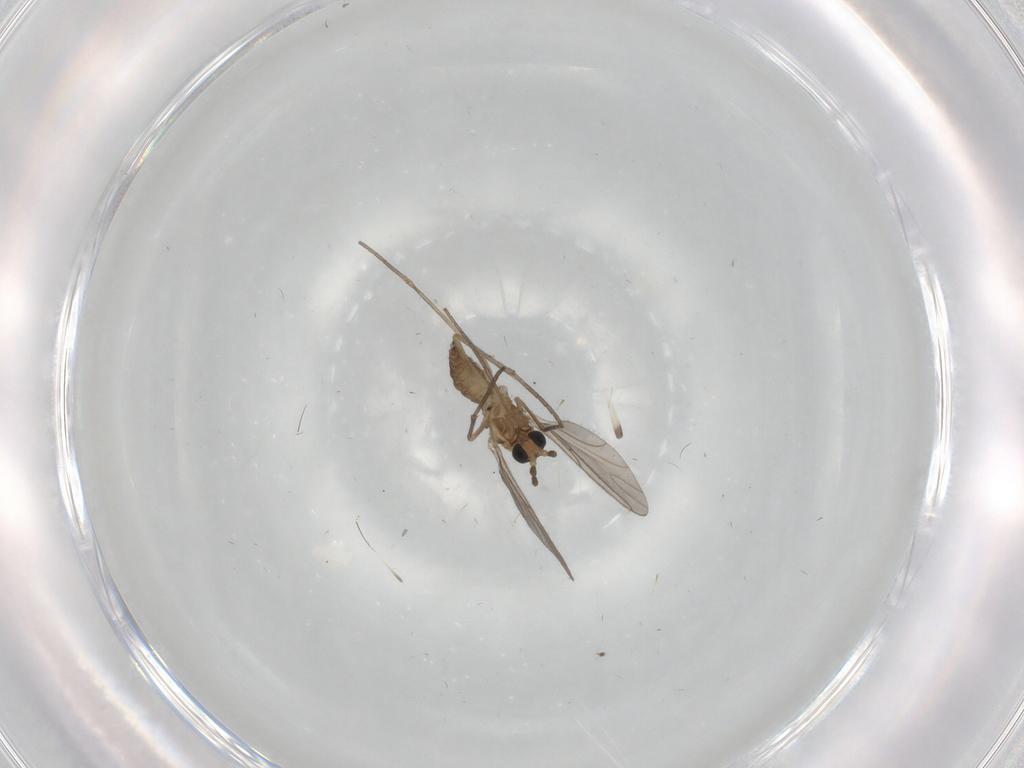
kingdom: Animalia
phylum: Arthropoda
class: Insecta
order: Diptera
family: Sciaridae
